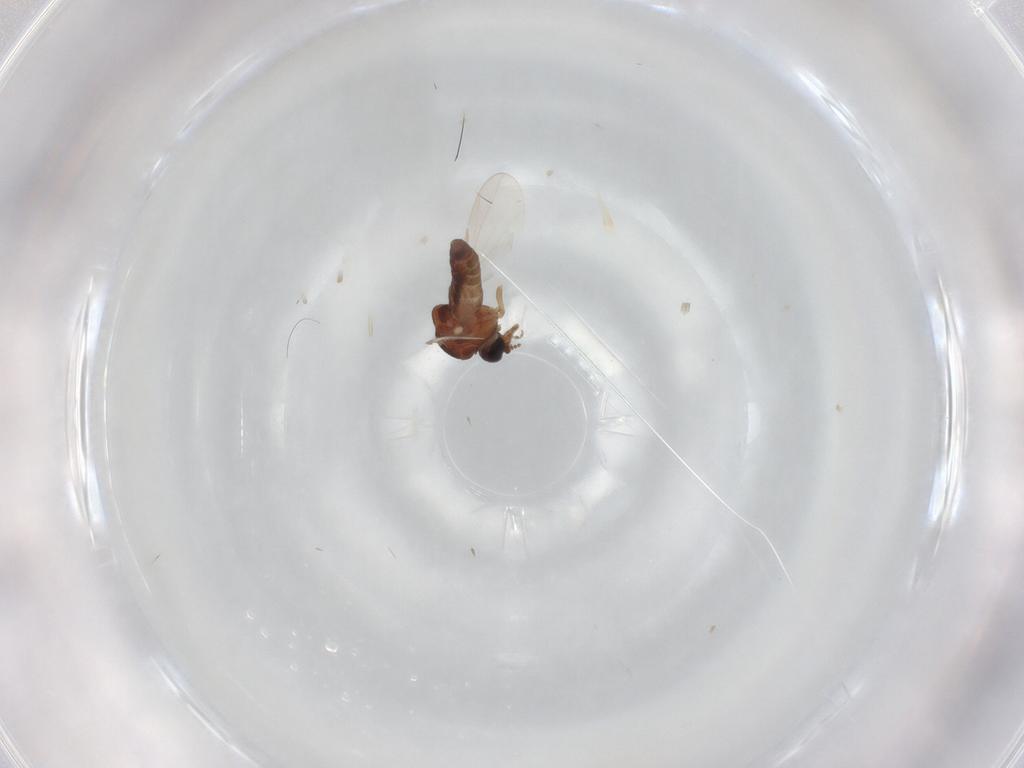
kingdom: Animalia
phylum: Arthropoda
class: Insecta
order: Diptera
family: Ceratopogonidae
